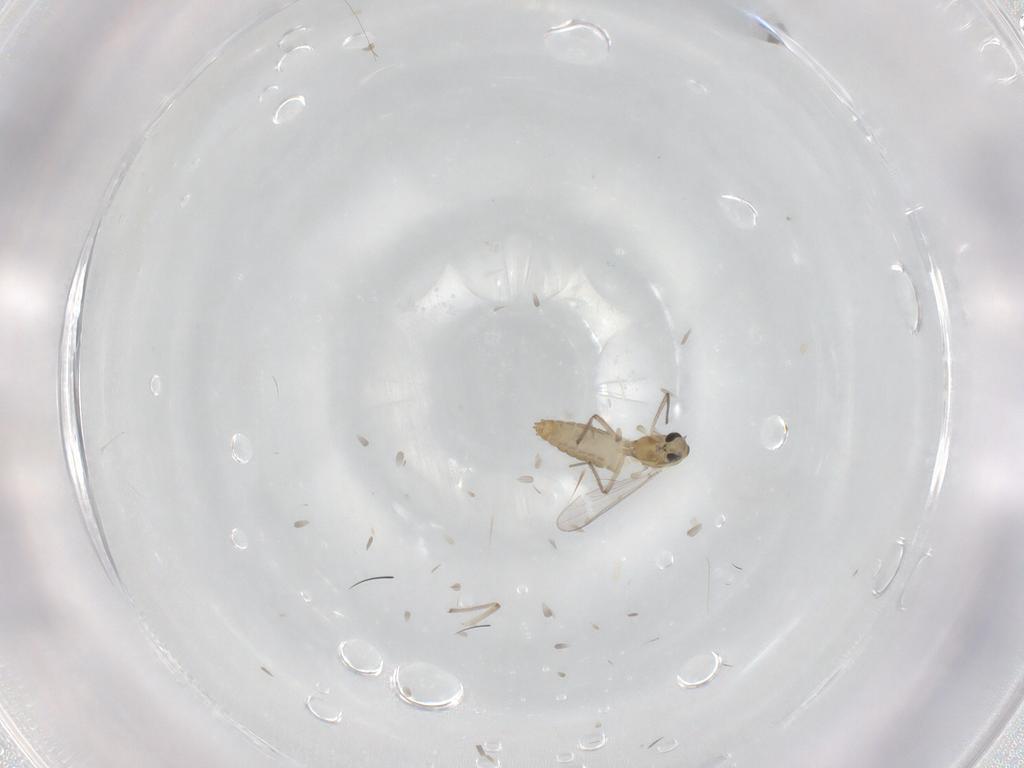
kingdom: Animalia
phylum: Arthropoda
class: Insecta
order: Diptera
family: Chironomidae
